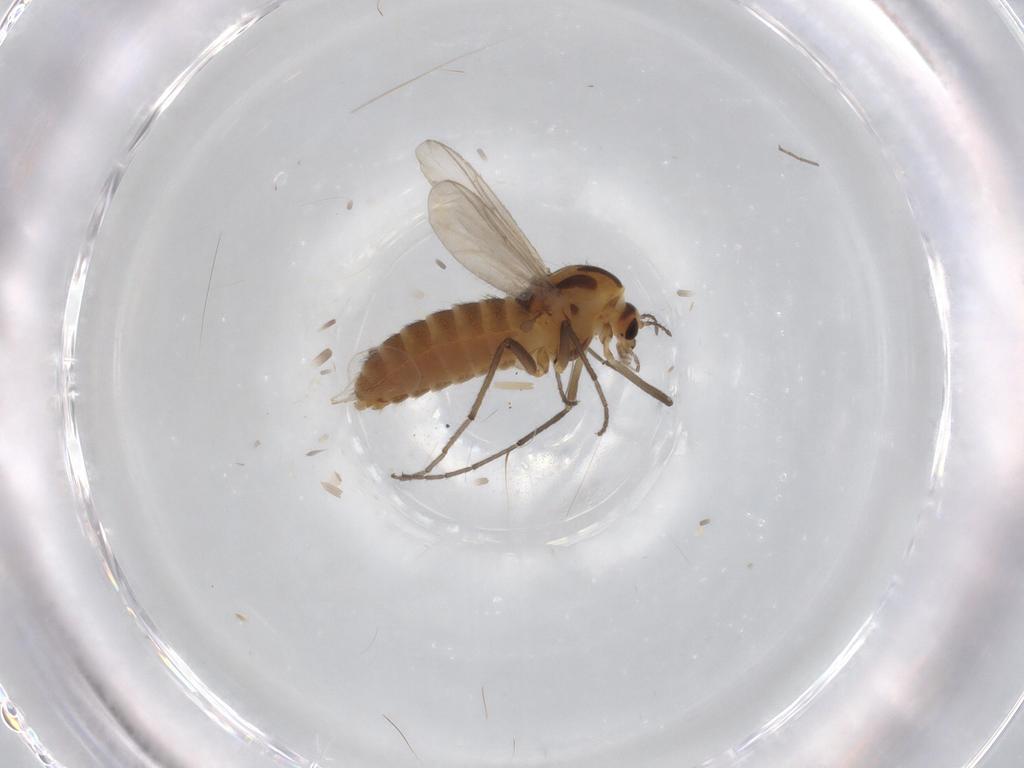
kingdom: Animalia
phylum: Arthropoda
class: Insecta
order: Diptera
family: Chironomidae
